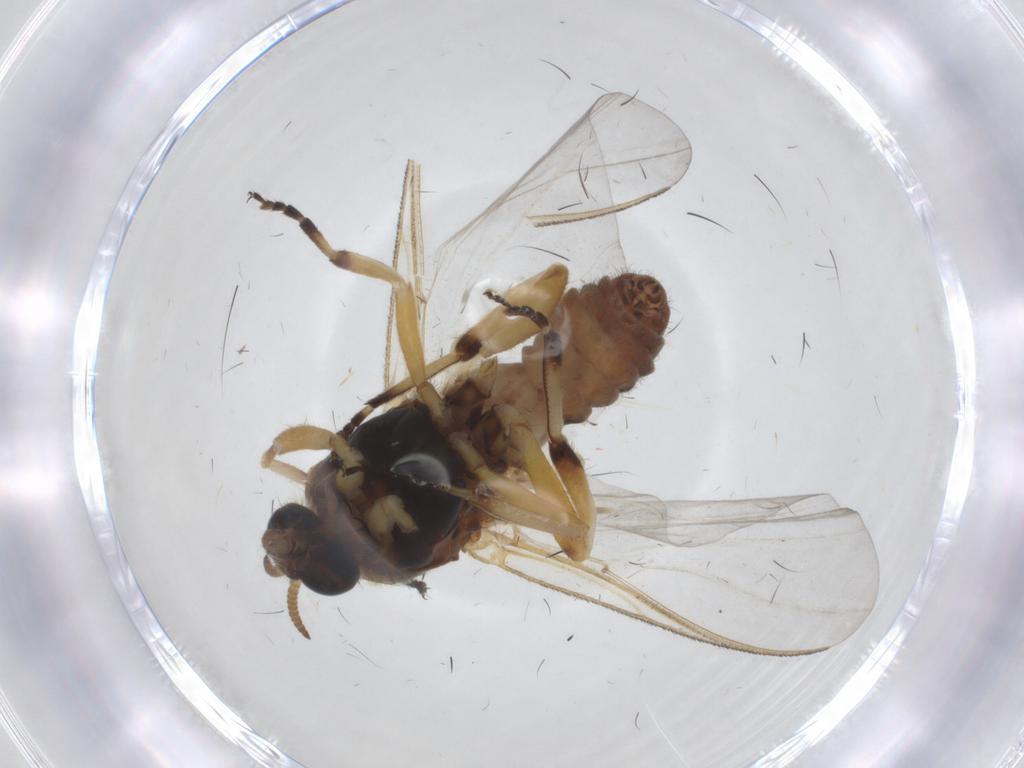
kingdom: Animalia
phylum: Arthropoda
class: Insecta
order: Diptera
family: Simuliidae
